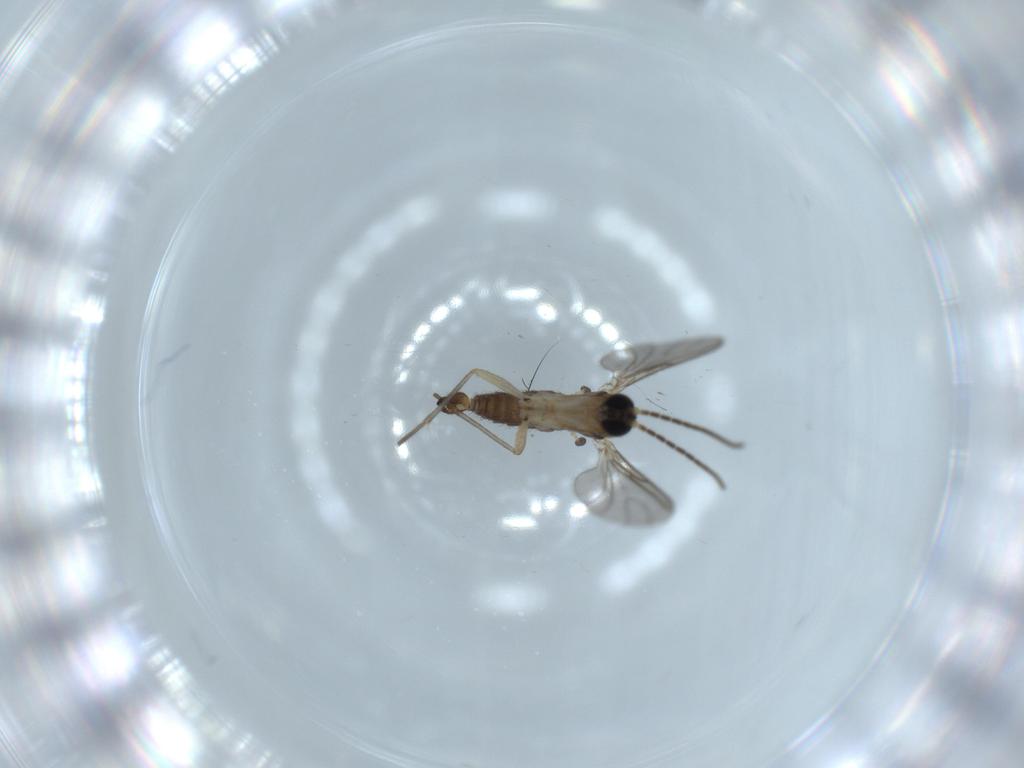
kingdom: Animalia
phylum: Arthropoda
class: Insecta
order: Diptera
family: Sciaridae
